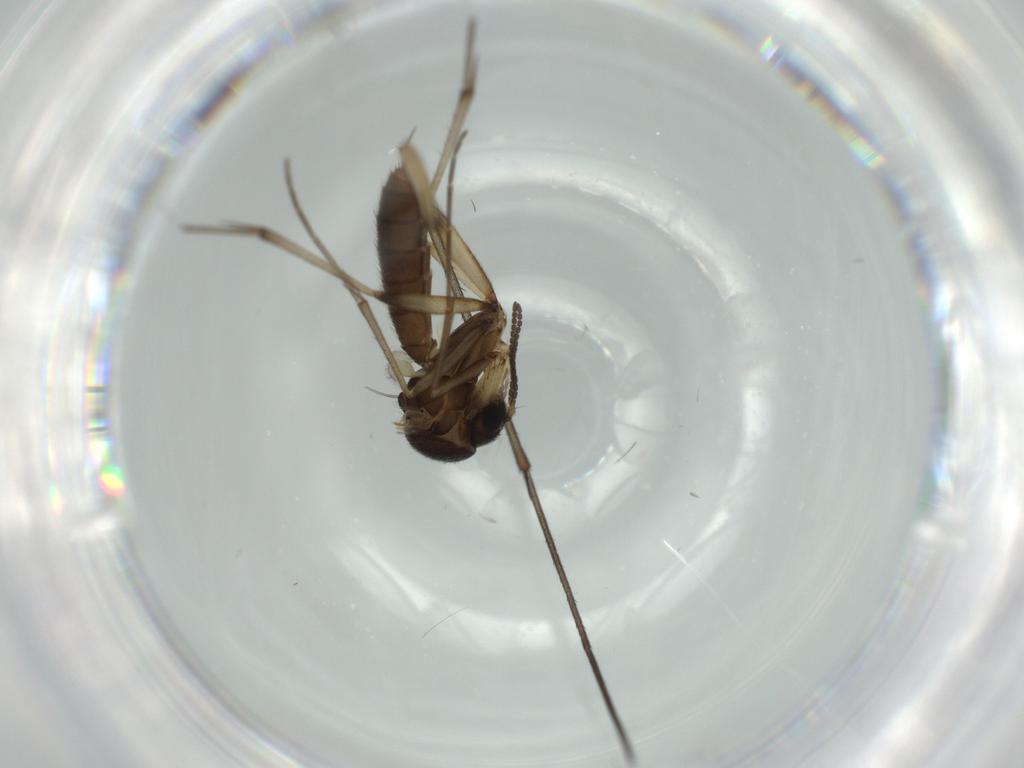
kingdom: Animalia
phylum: Arthropoda
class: Insecta
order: Diptera
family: Mycetophilidae
